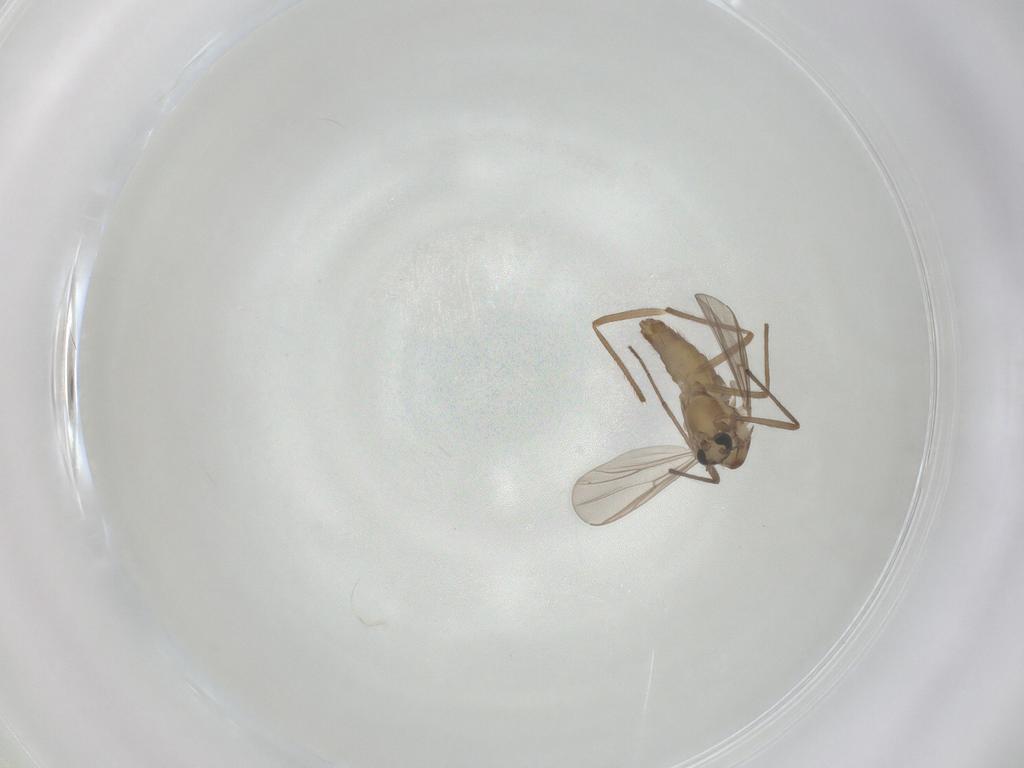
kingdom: Animalia
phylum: Arthropoda
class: Insecta
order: Diptera
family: Chironomidae
